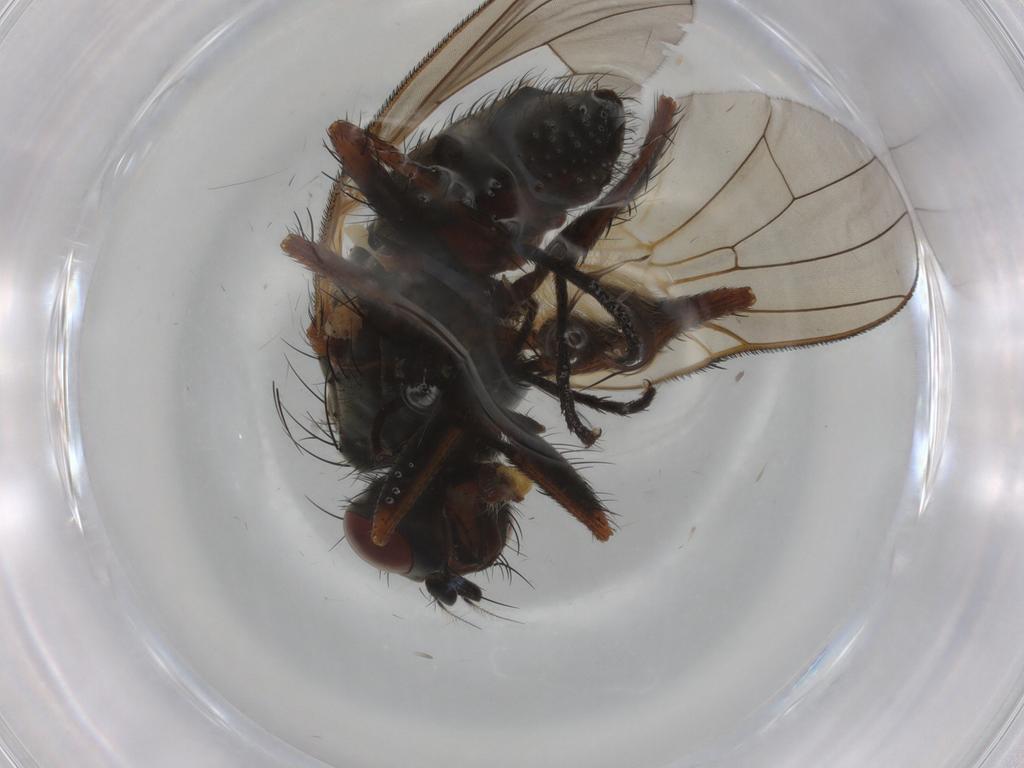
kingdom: Animalia
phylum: Arthropoda
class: Insecta
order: Diptera
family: Anthomyiidae
